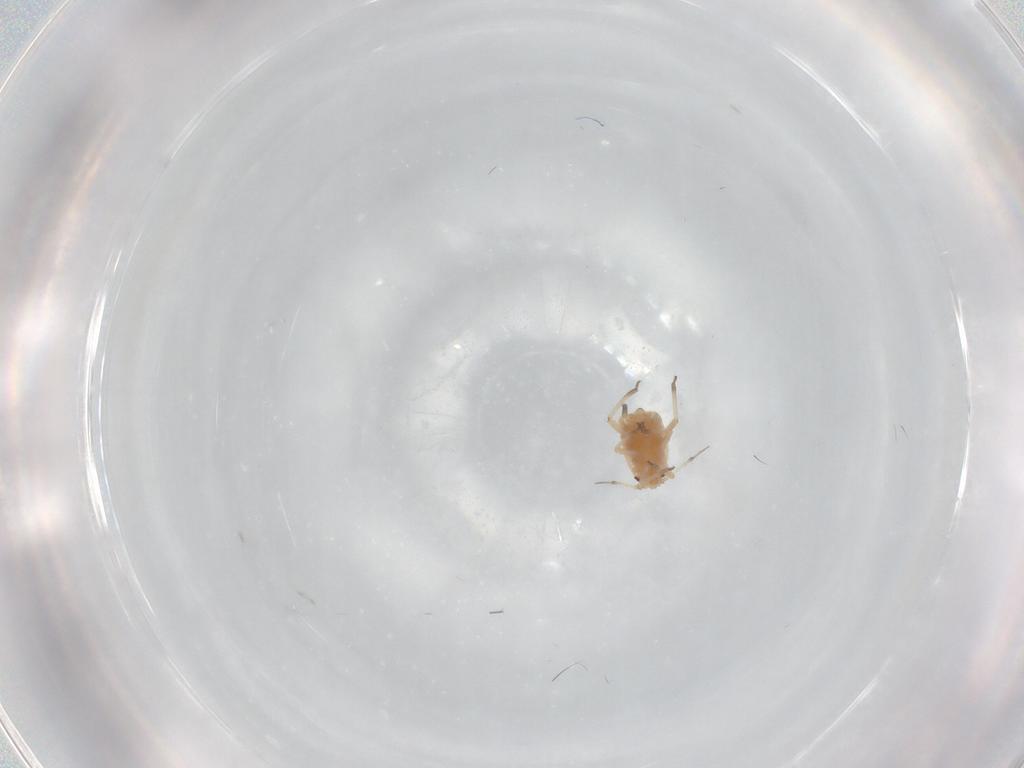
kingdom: Animalia
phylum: Arthropoda
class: Insecta
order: Hemiptera
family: Aphididae
